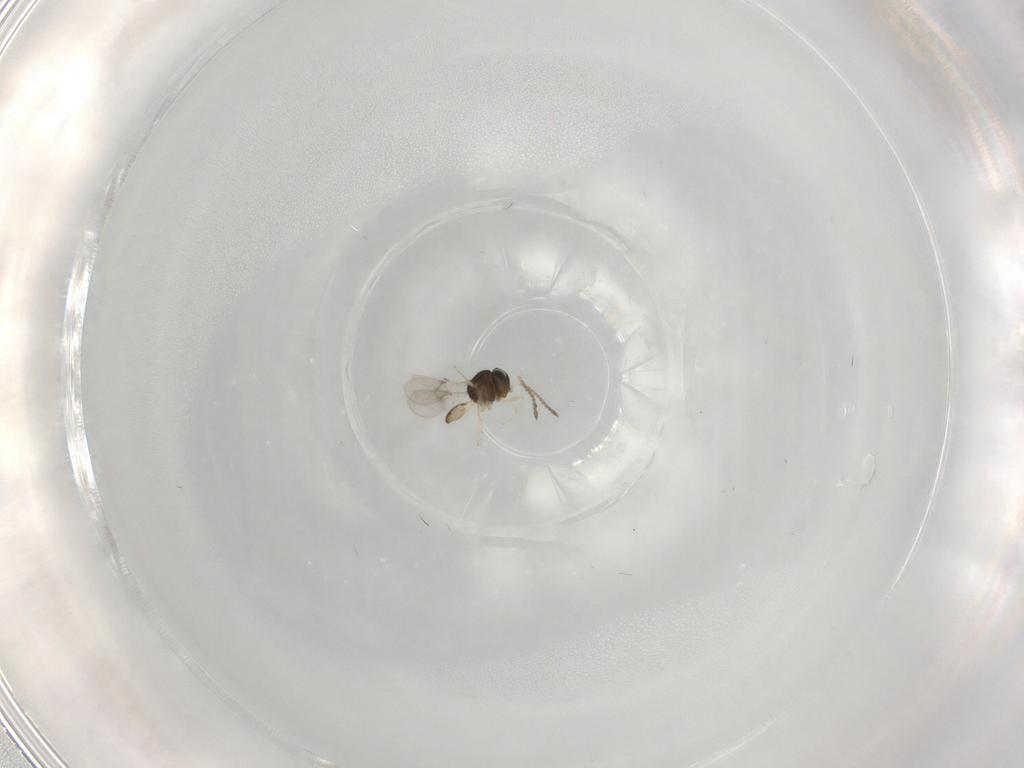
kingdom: Animalia
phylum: Arthropoda
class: Insecta
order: Hymenoptera
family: Scelionidae
